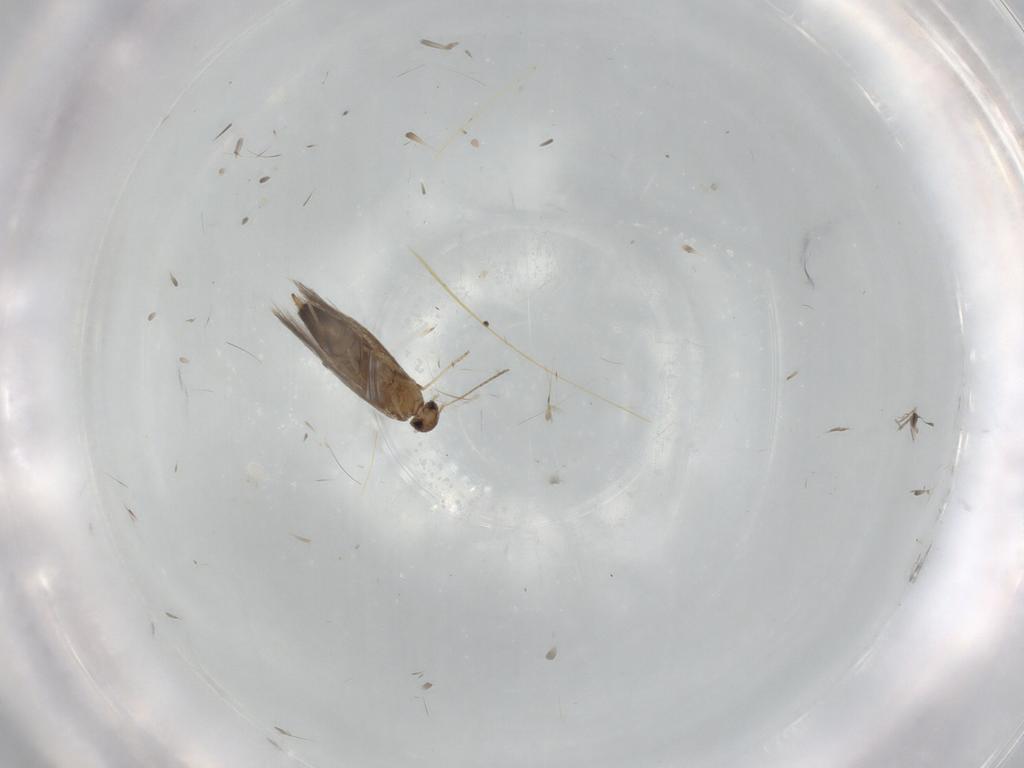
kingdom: Animalia
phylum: Arthropoda
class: Insecta
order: Lepidoptera
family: Heliozelidae
